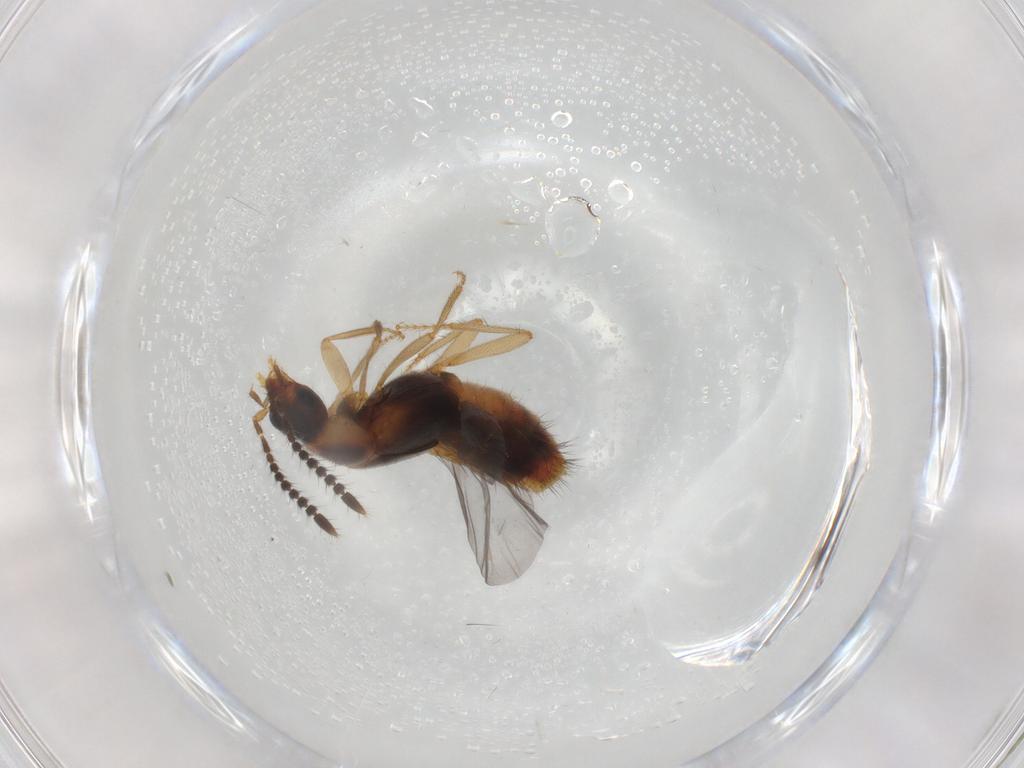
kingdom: Animalia
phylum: Arthropoda
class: Insecta
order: Coleoptera
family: Staphylinidae
